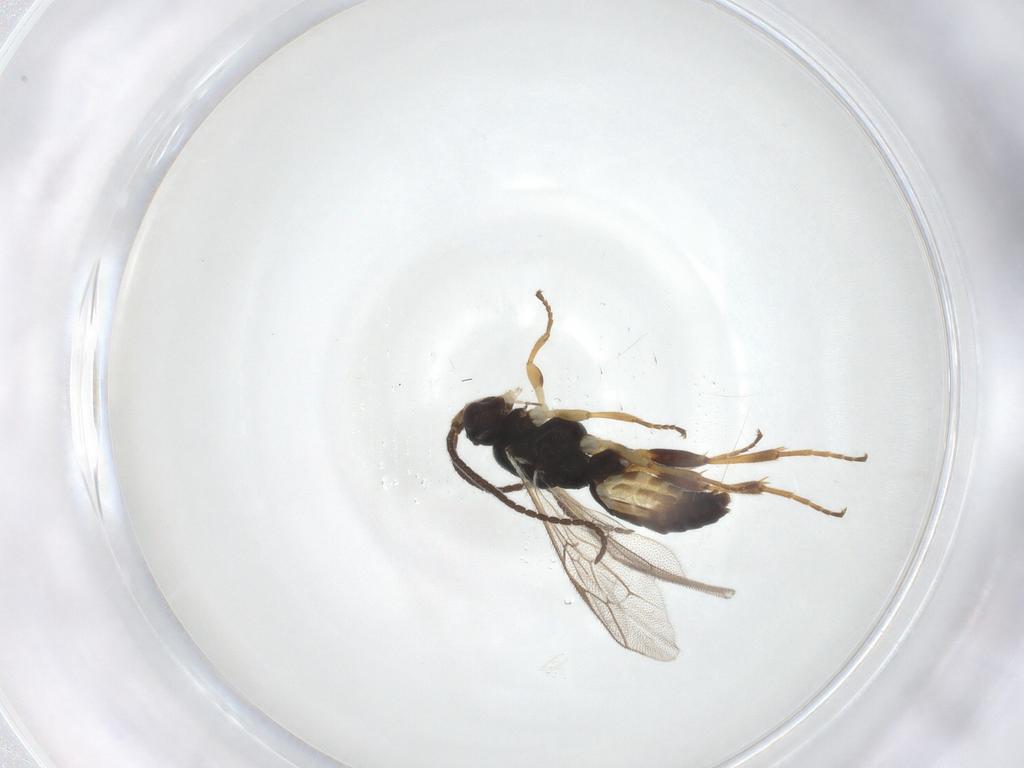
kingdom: Animalia
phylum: Arthropoda
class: Insecta
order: Hymenoptera
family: Ichneumonidae
